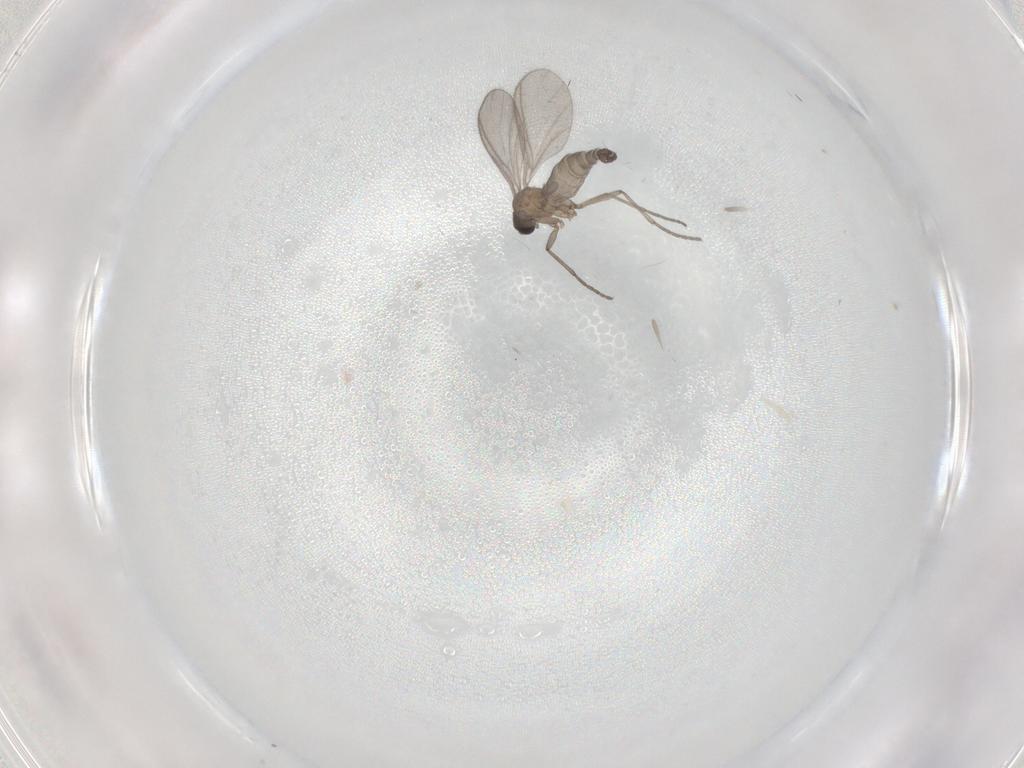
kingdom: Animalia
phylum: Arthropoda
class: Insecta
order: Diptera
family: Sciaridae
